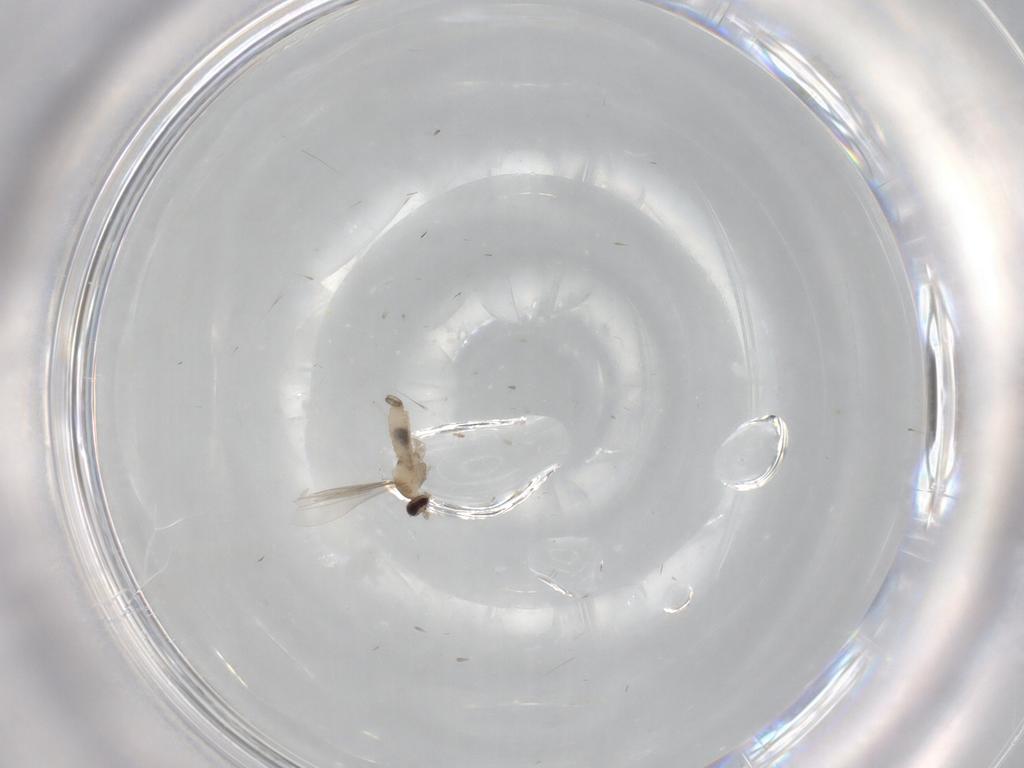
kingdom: Animalia
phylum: Arthropoda
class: Insecta
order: Diptera
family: Cecidomyiidae
